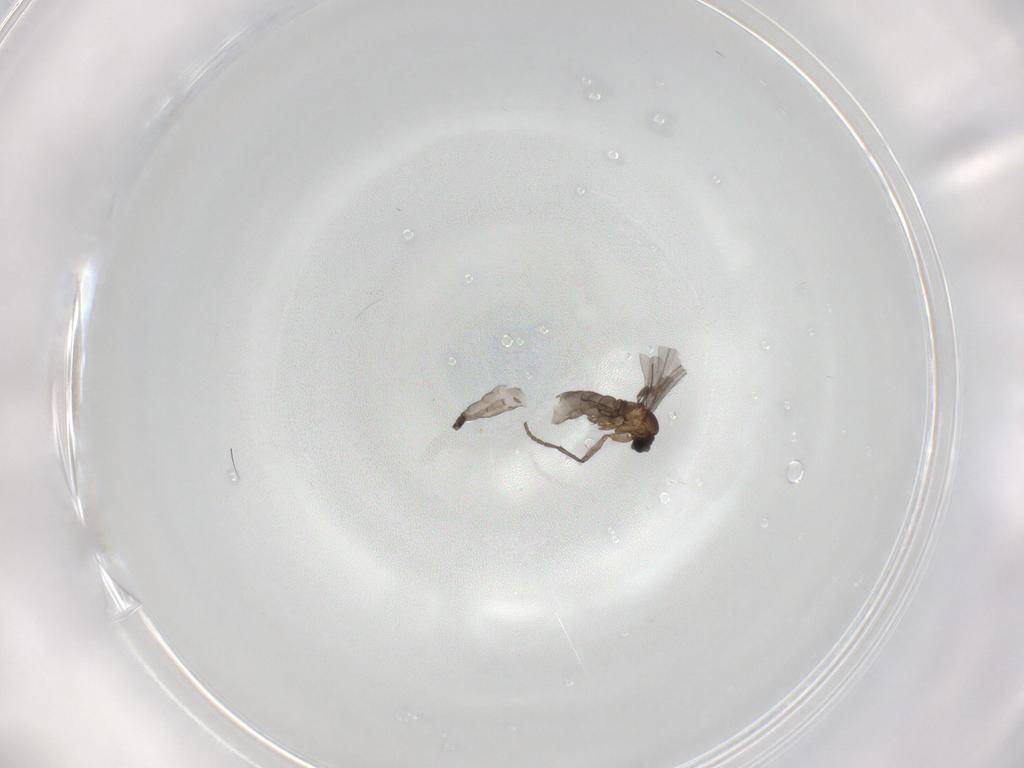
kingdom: Animalia
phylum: Arthropoda
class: Insecta
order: Diptera
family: Sciaridae
